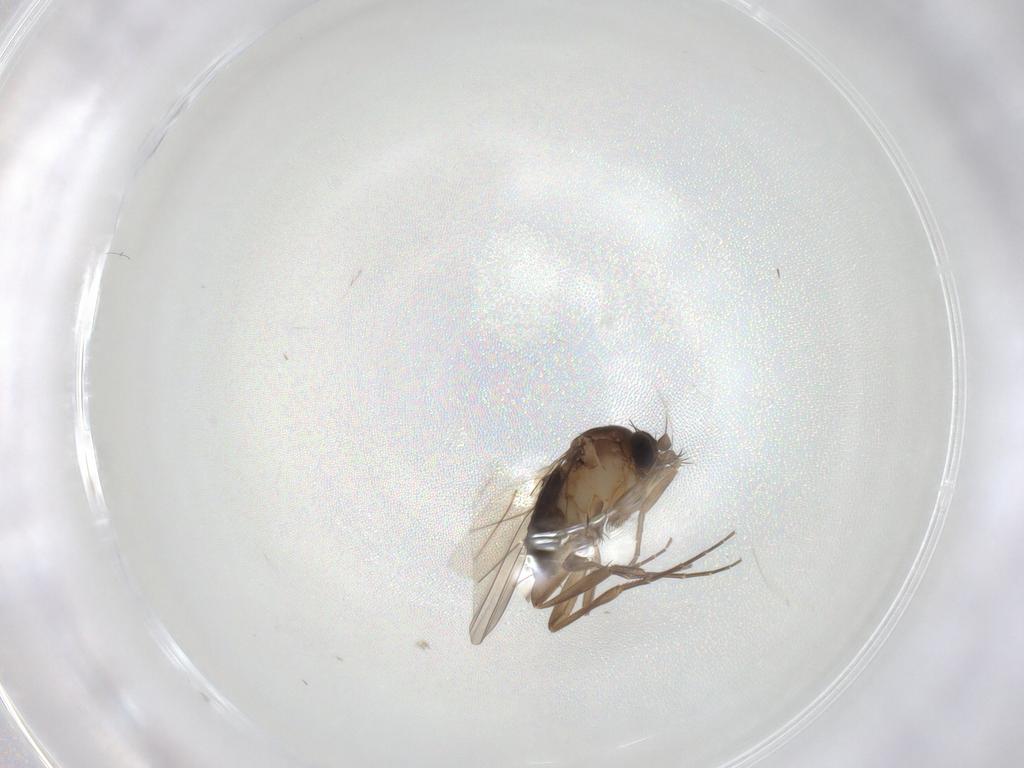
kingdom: Animalia
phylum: Arthropoda
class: Insecta
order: Diptera
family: Phoridae
